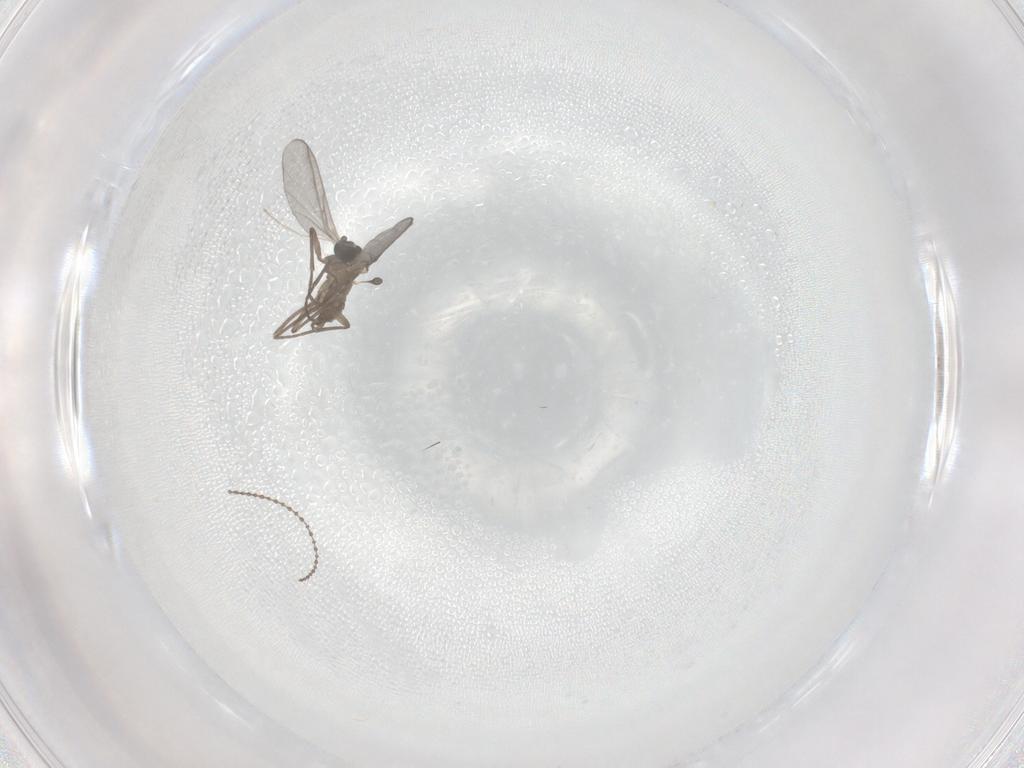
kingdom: Animalia
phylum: Arthropoda
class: Insecta
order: Diptera
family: Sciaridae
